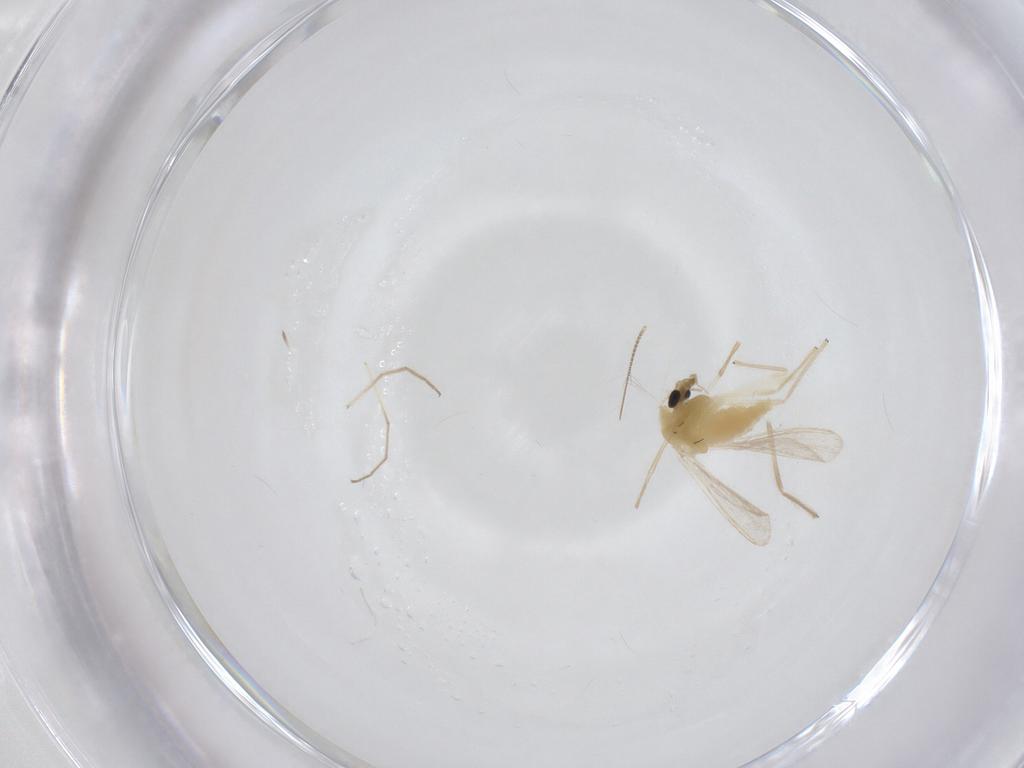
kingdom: Animalia
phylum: Arthropoda
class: Insecta
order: Diptera
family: Chironomidae
